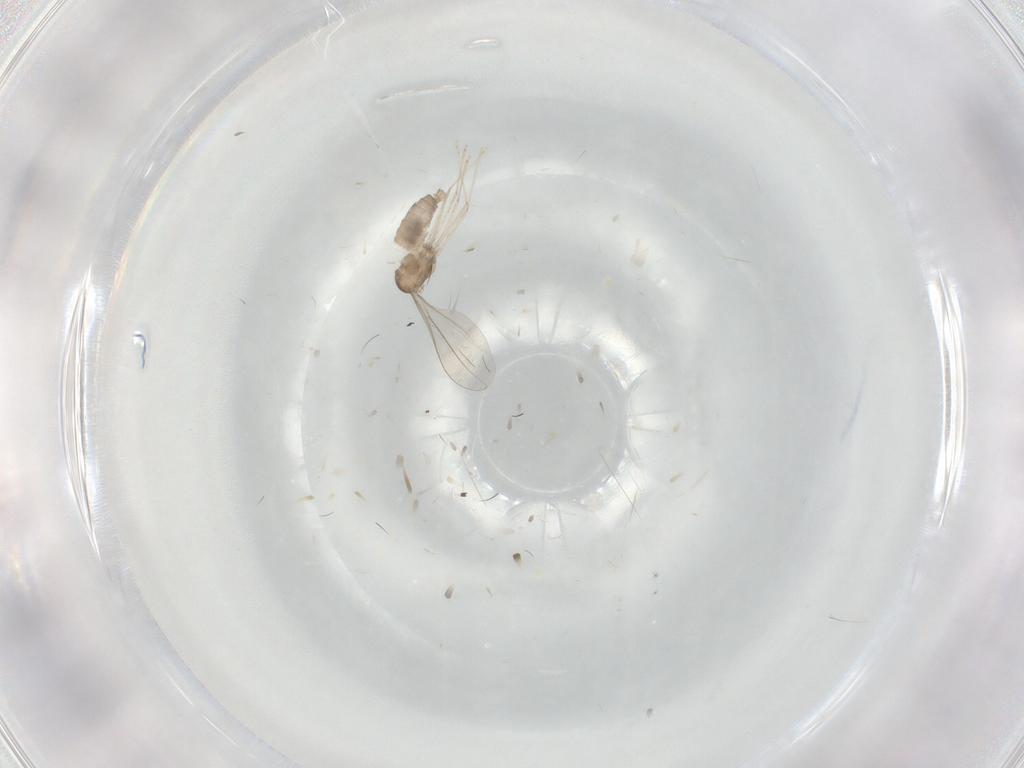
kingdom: Animalia
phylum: Arthropoda
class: Insecta
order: Diptera
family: Cecidomyiidae
